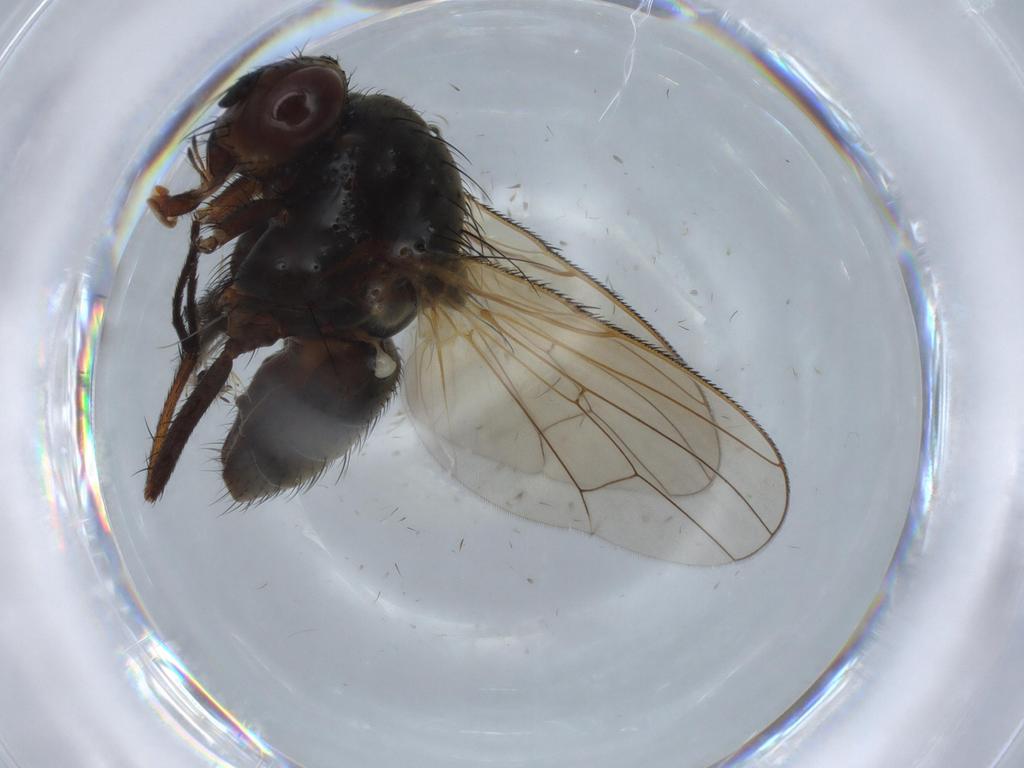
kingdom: Animalia
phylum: Arthropoda
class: Insecta
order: Diptera
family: Anthomyiidae
